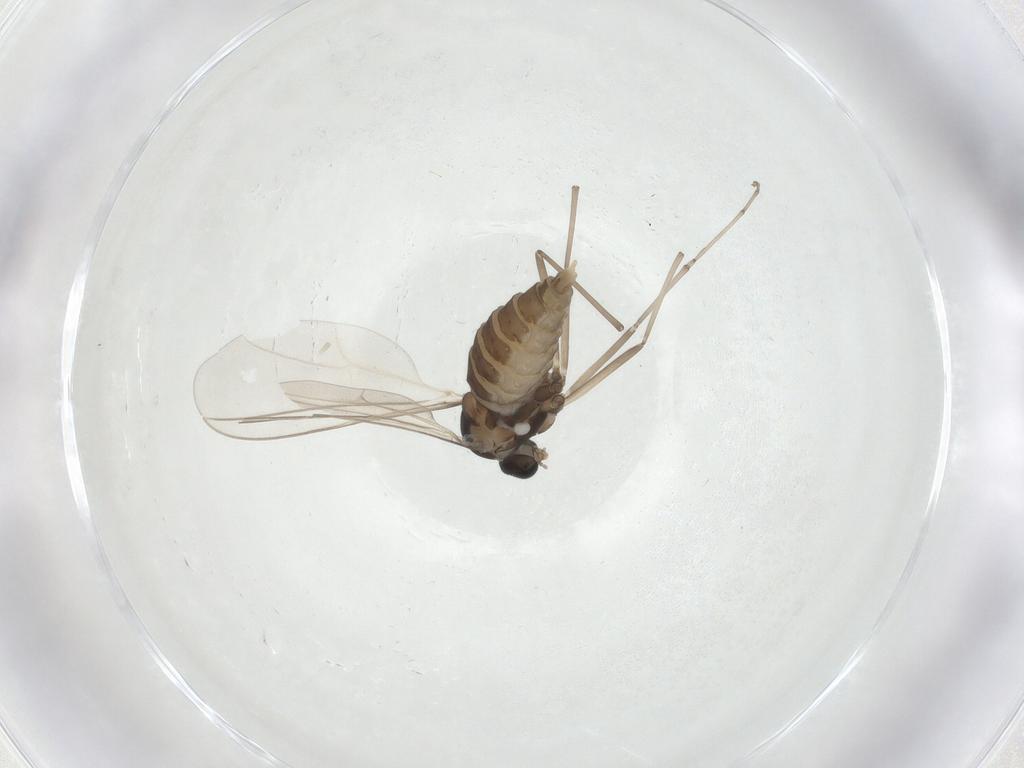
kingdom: Animalia
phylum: Arthropoda
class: Insecta
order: Diptera
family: Cecidomyiidae
